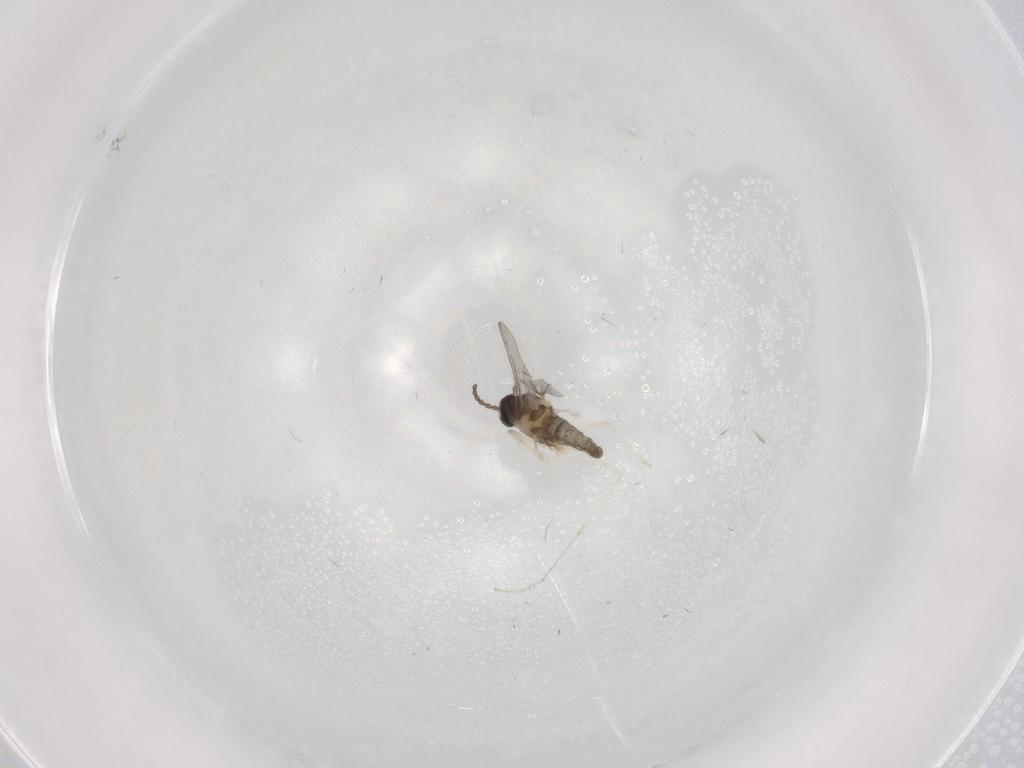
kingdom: Animalia
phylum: Arthropoda
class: Insecta
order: Diptera
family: Cecidomyiidae
